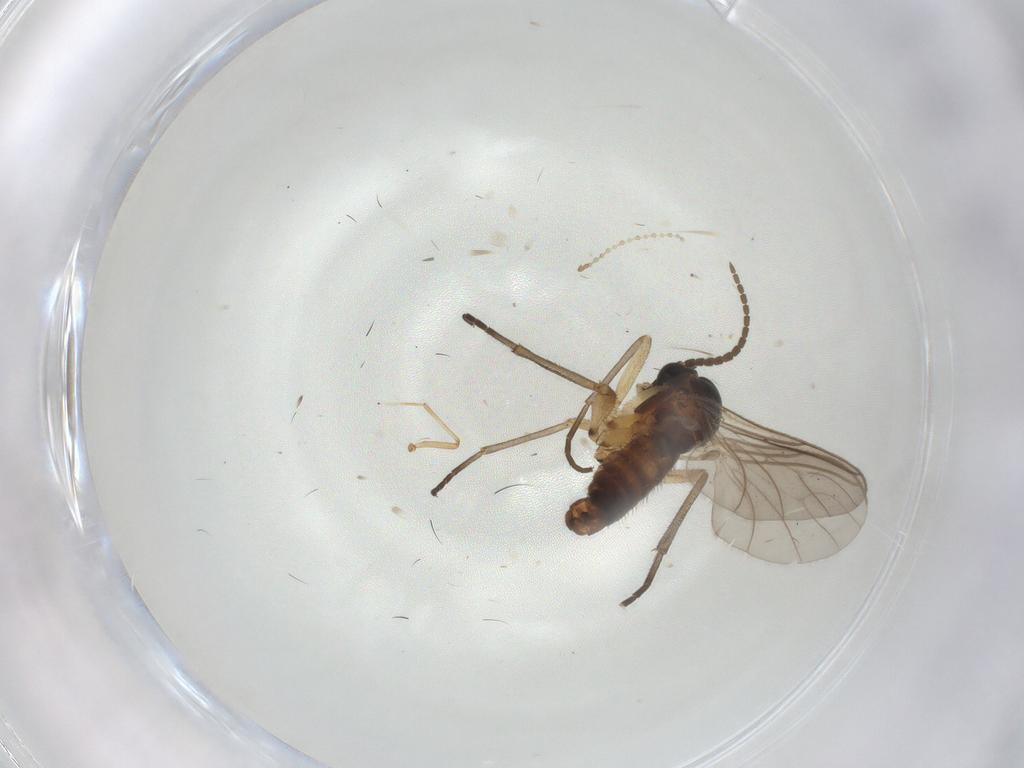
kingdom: Animalia
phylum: Arthropoda
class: Insecta
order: Diptera
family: Sciaridae
